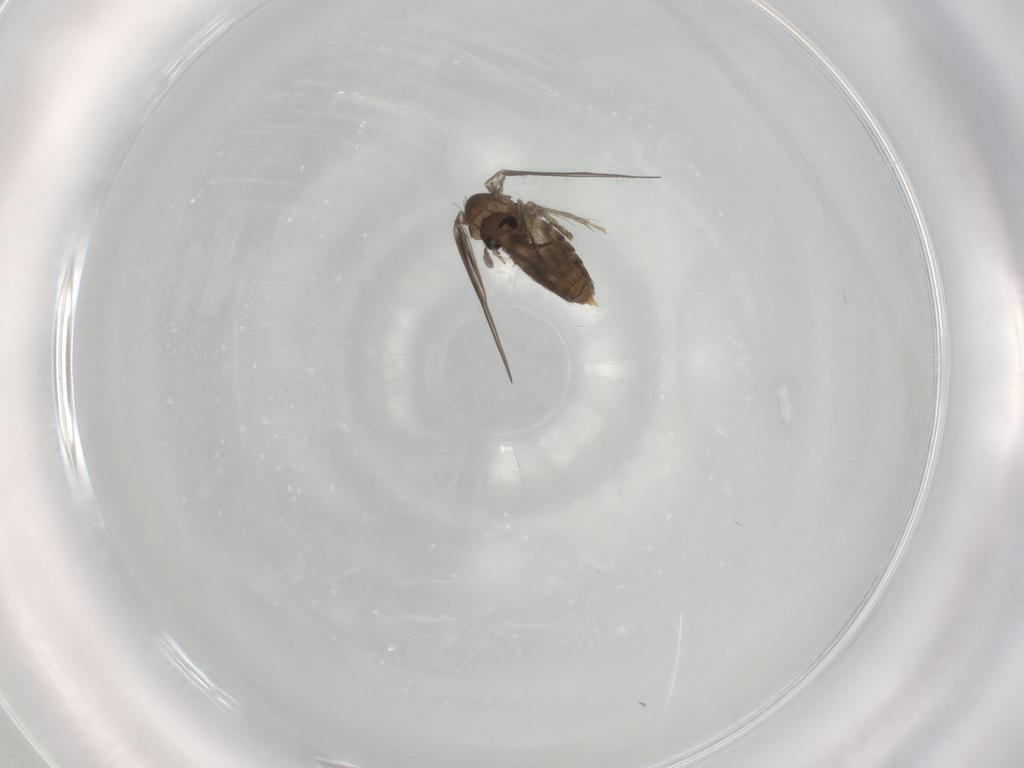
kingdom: Animalia
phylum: Arthropoda
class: Insecta
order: Diptera
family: Psychodidae
